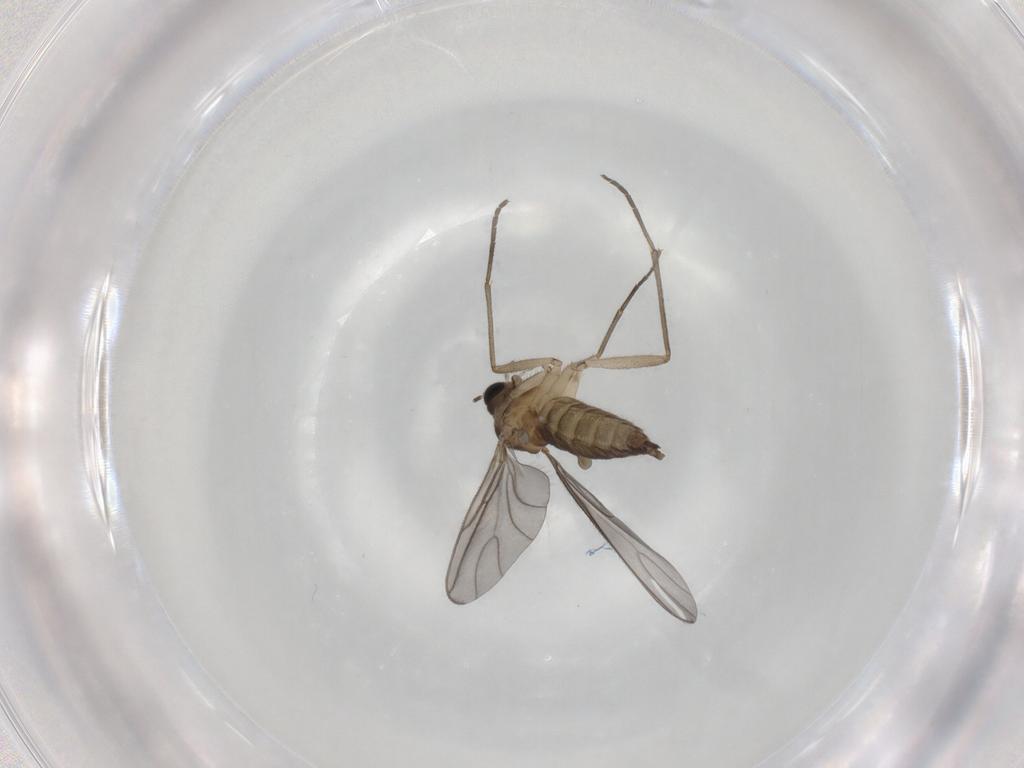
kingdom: Animalia
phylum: Arthropoda
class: Insecta
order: Diptera
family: Sciaridae
